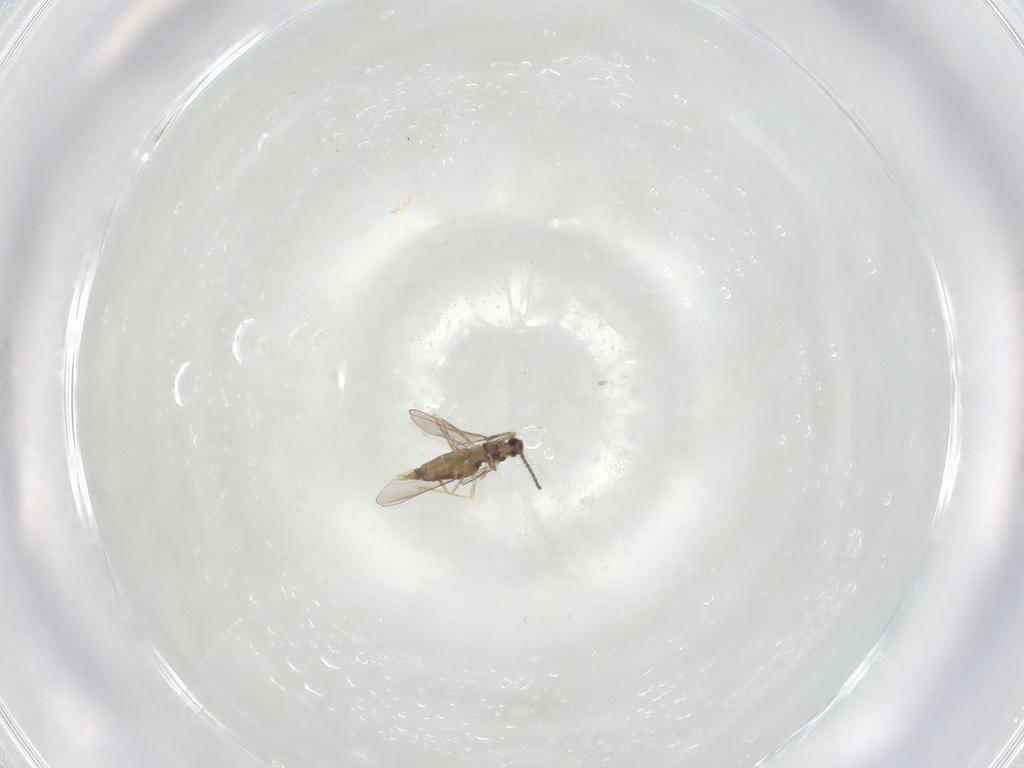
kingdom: Animalia
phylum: Arthropoda
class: Insecta
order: Diptera
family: Cecidomyiidae
